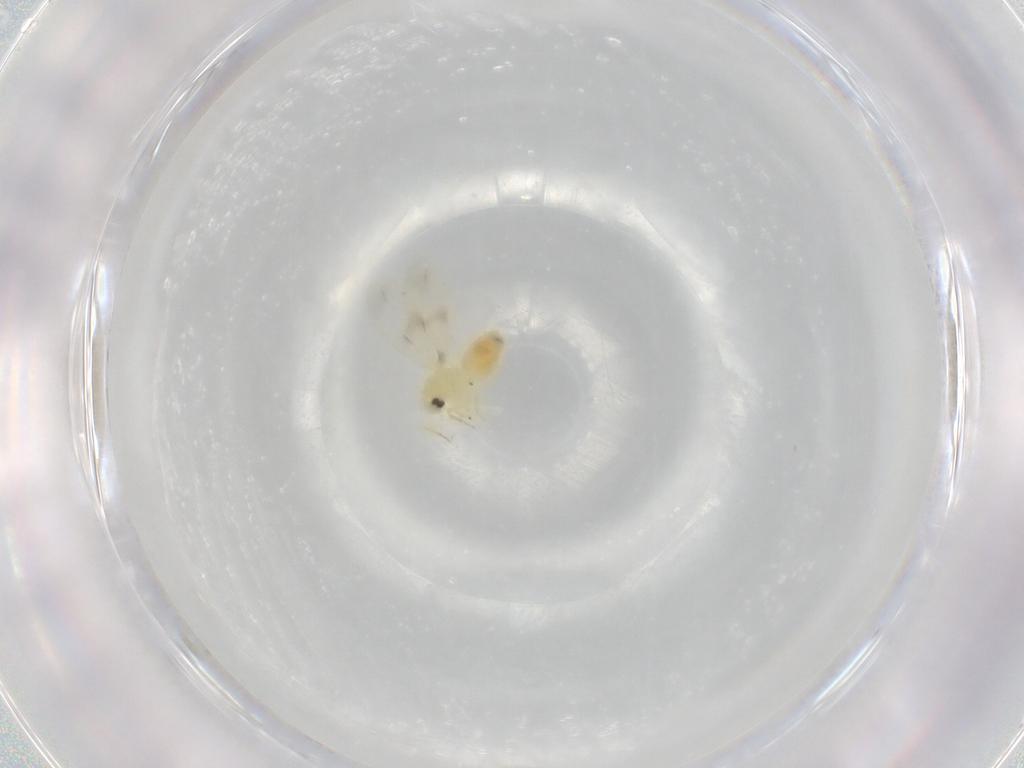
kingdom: Animalia
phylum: Arthropoda
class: Insecta
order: Hemiptera
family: Aleyrodidae
